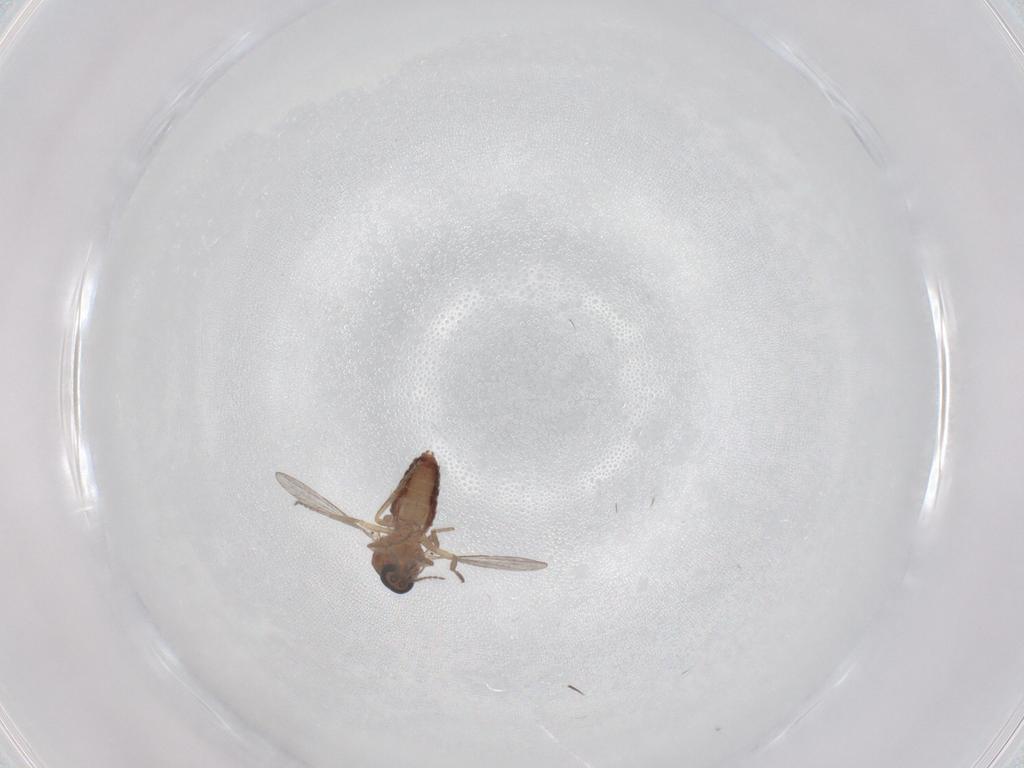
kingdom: Animalia
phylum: Arthropoda
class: Insecta
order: Diptera
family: Ceratopogonidae
